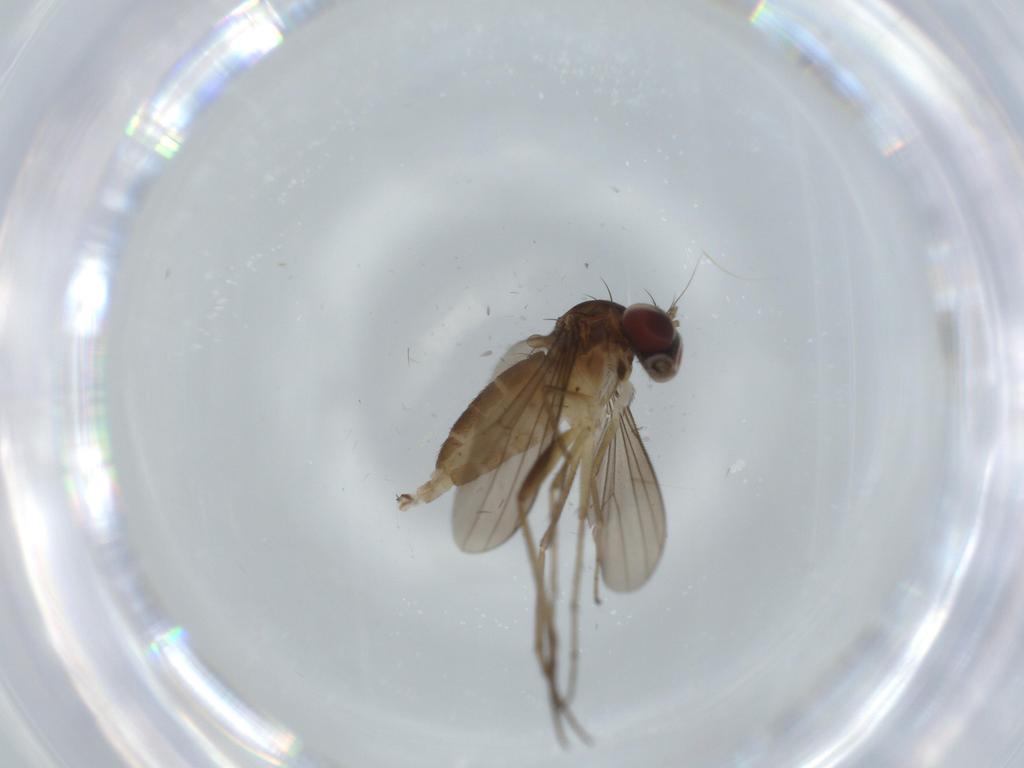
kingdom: Animalia
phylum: Arthropoda
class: Insecta
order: Diptera
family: Dolichopodidae
